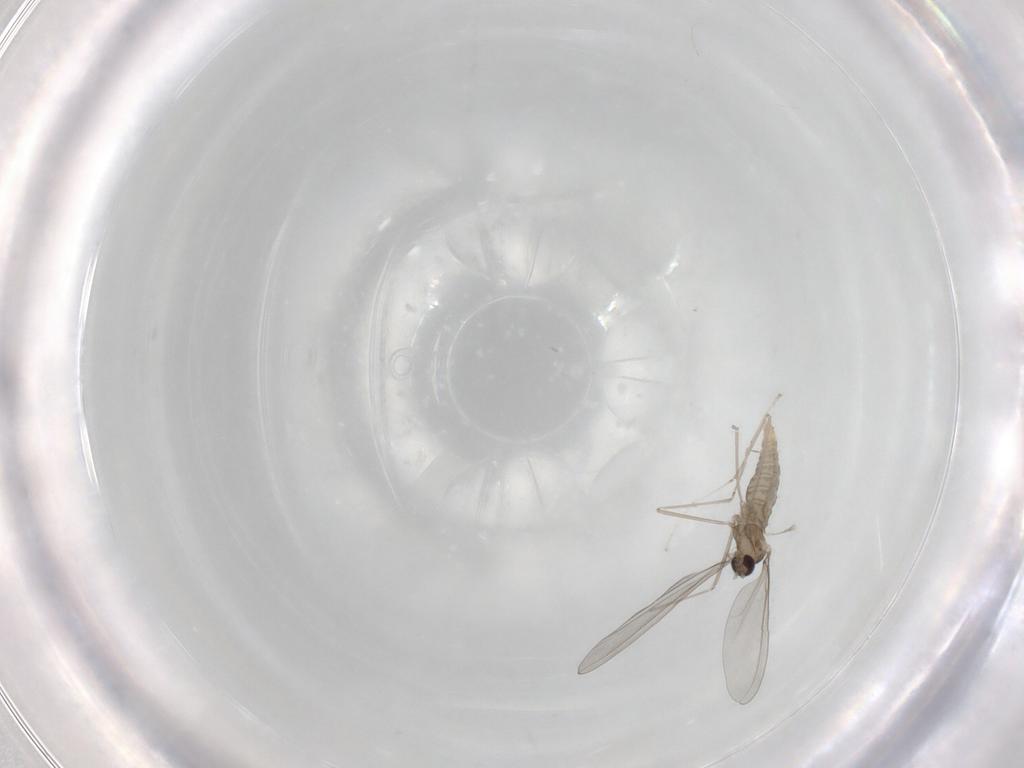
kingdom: Animalia
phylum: Arthropoda
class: Insecta
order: Diptera
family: Cecidomyiidae
